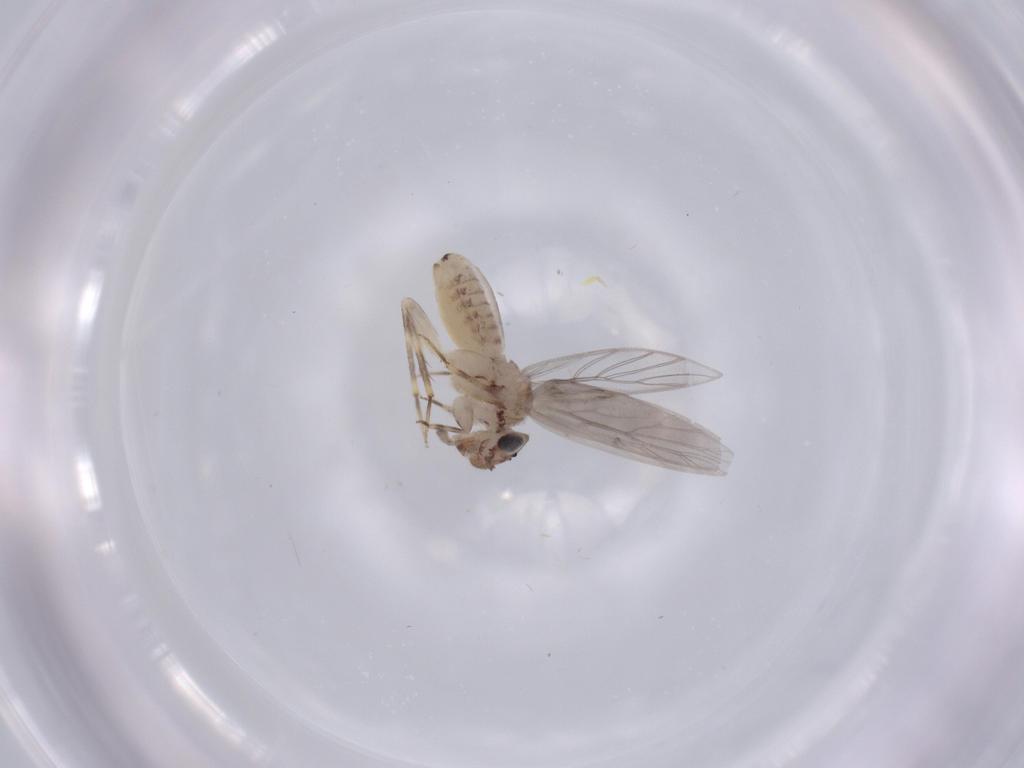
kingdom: Animalia
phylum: Arthropoda
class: Insecta
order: Psocodea
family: Lepidopsocidae
